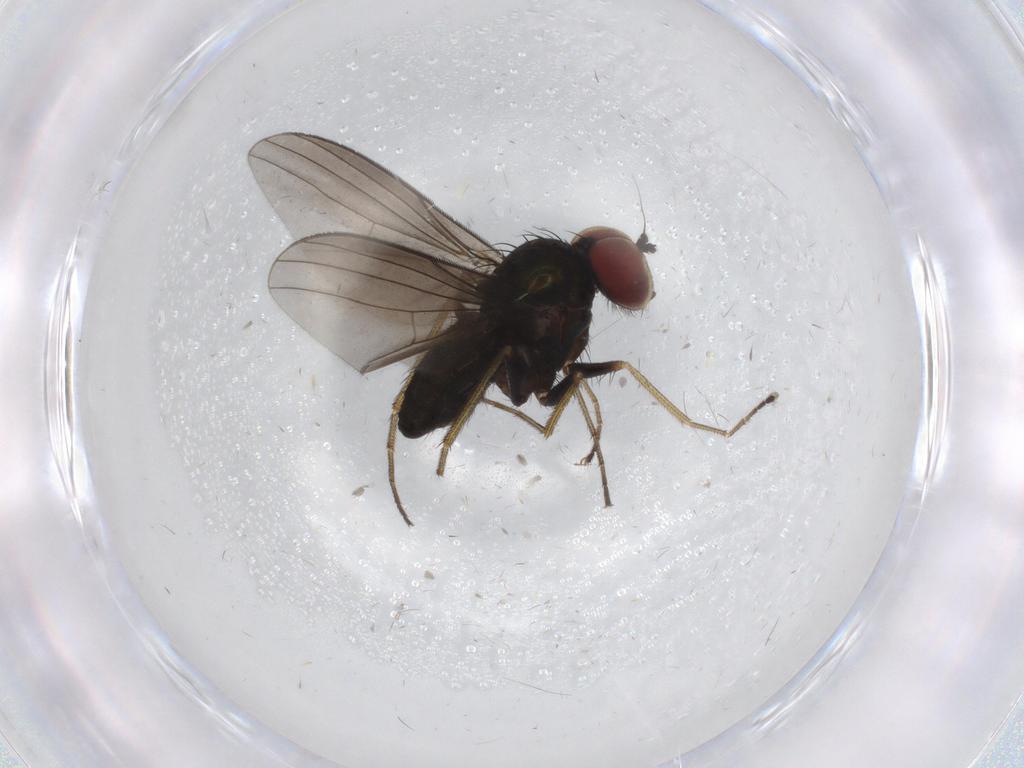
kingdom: Animalia
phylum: Arthropoda
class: Insecta
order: Diptera
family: Dolichopodidae
